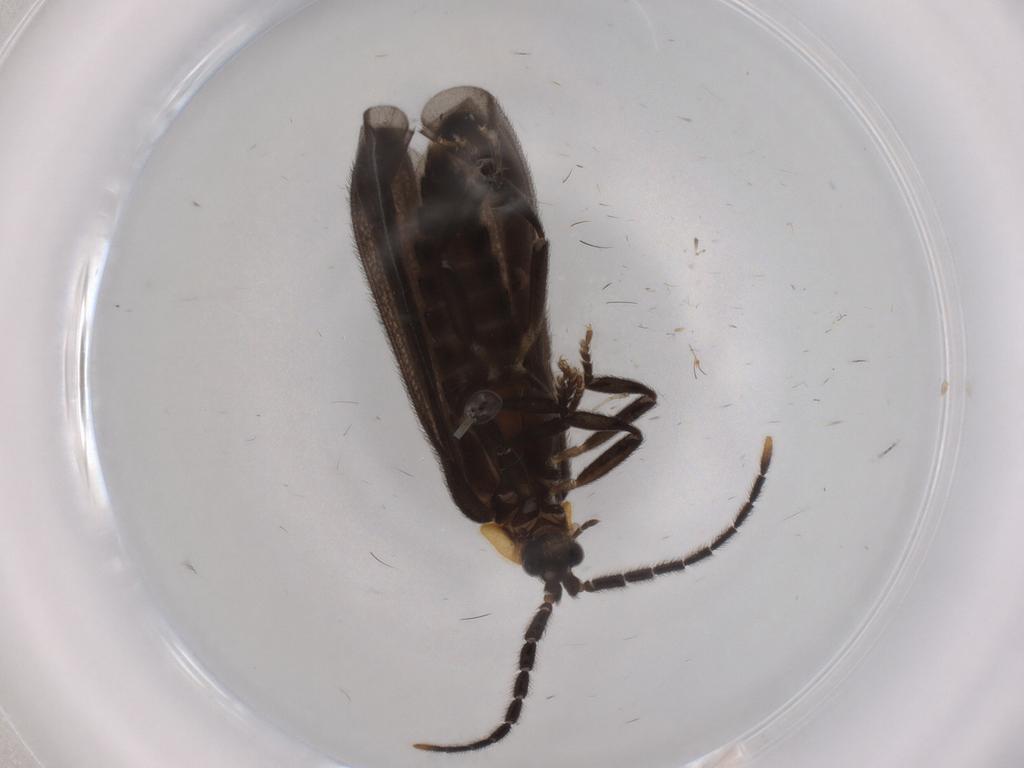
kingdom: Animalia
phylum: Arthropoda
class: Insecta
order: Coleoptera
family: Lycidae
